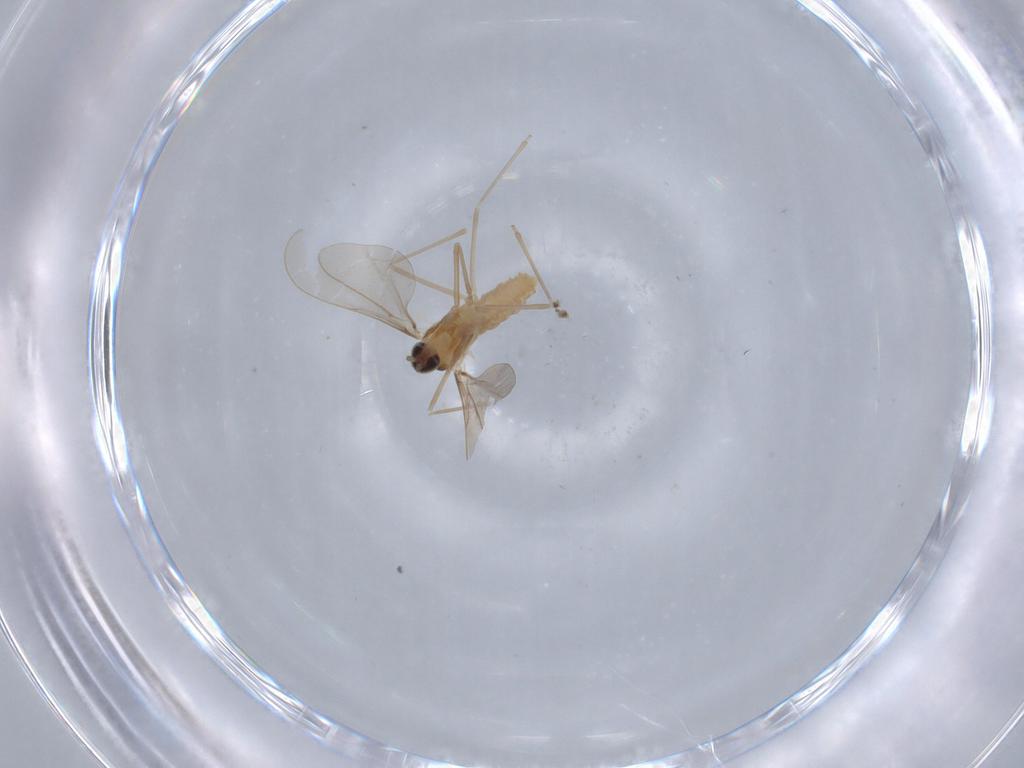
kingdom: Animalia
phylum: Arthropoda
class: Insecta
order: Diptera
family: Cecidomyiidae
